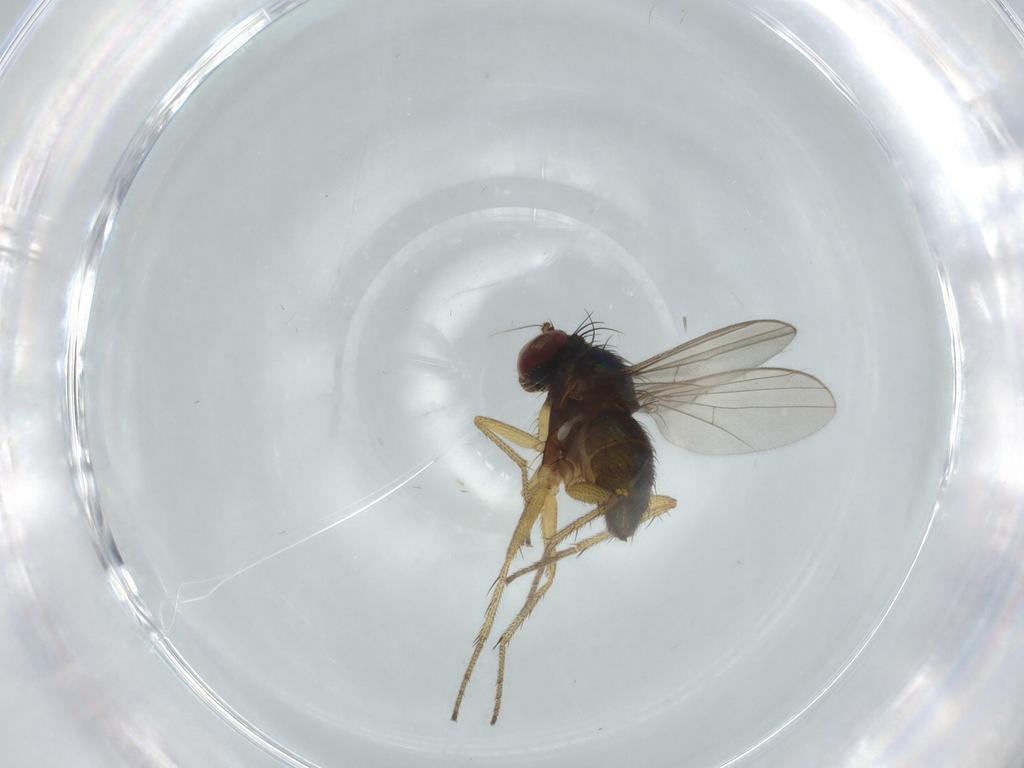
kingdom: Animalia
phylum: Arthropoda
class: Insecta
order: Diptera
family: Dolichopodidae
